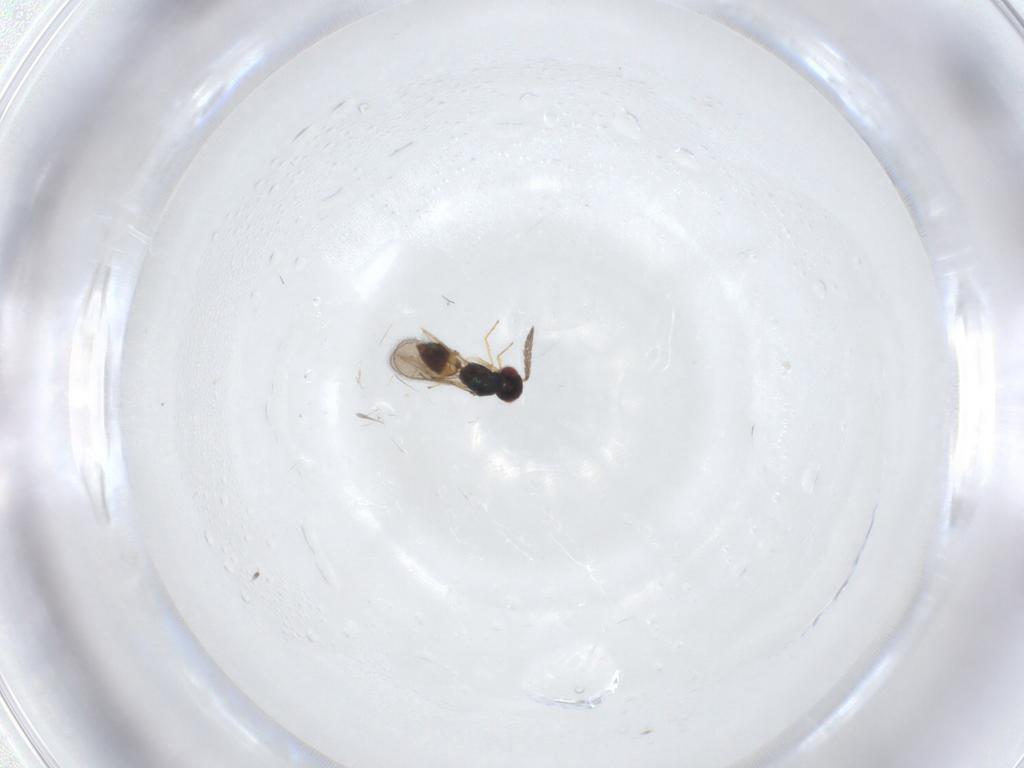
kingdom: Animalia
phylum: Arthropoda
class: Insecta
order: Hymenoptera
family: Eulophidae
